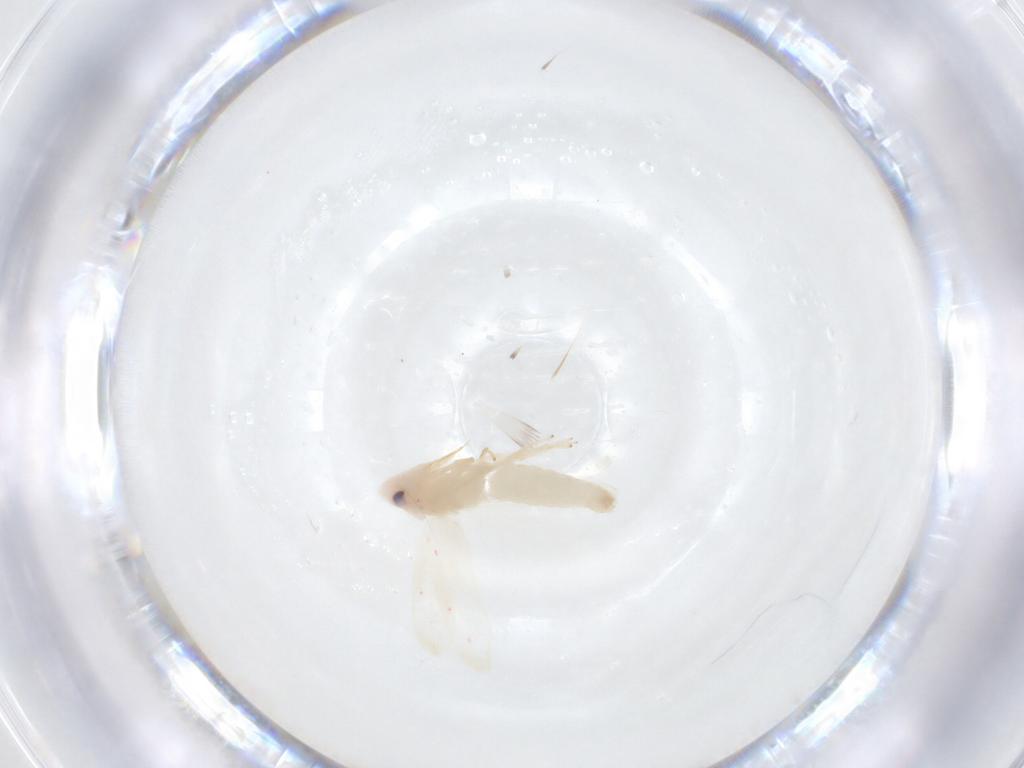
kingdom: Animalia
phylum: Arthropoda
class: Insecta
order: Hemiptera
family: Cicadellidae
